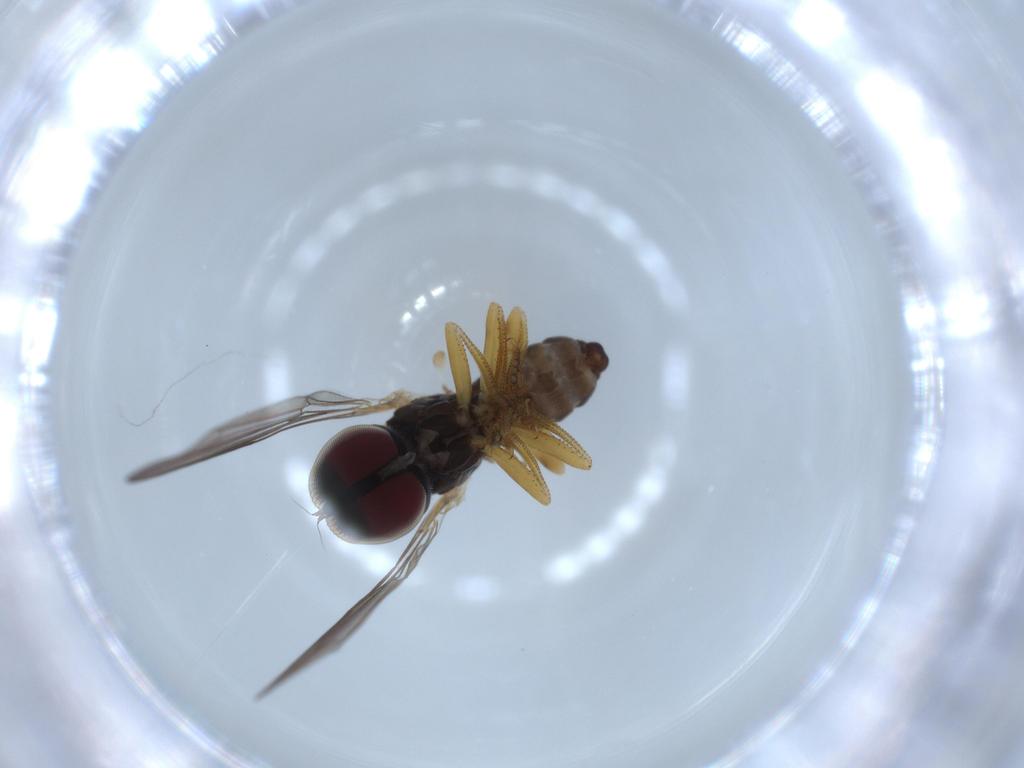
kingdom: Animalia
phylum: Arthropoda
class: Insecta
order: Diptera
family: Pipunculidae
